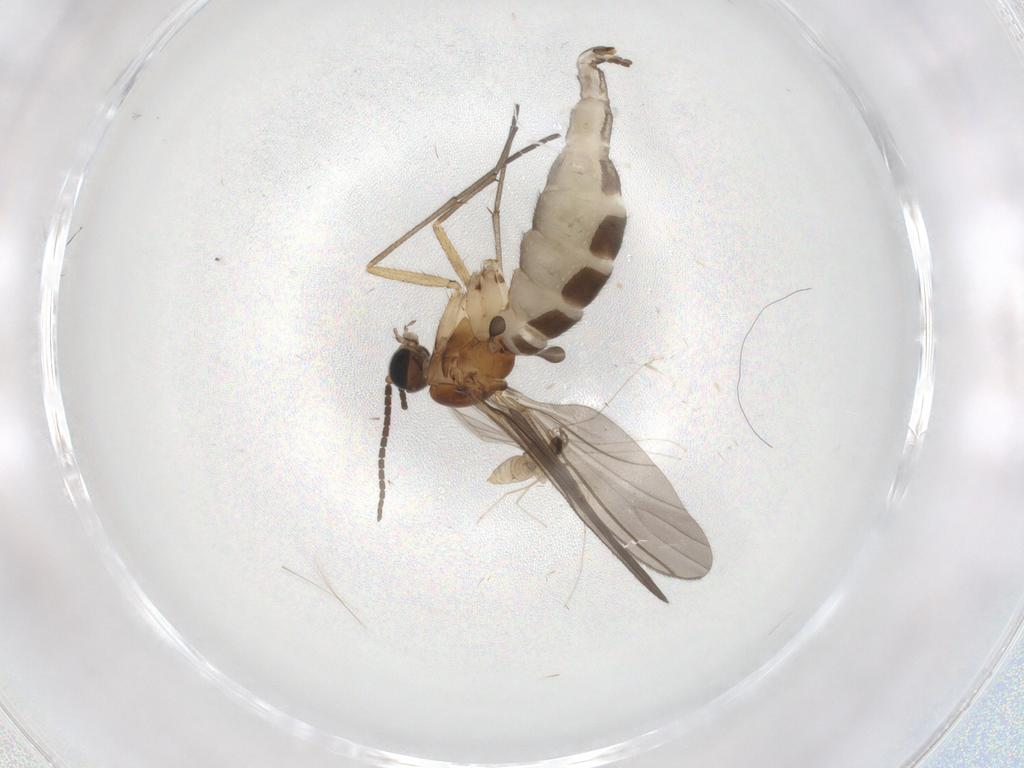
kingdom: Animalia
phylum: Arthropoda
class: Insecta
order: Diptera
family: Sciaridae
